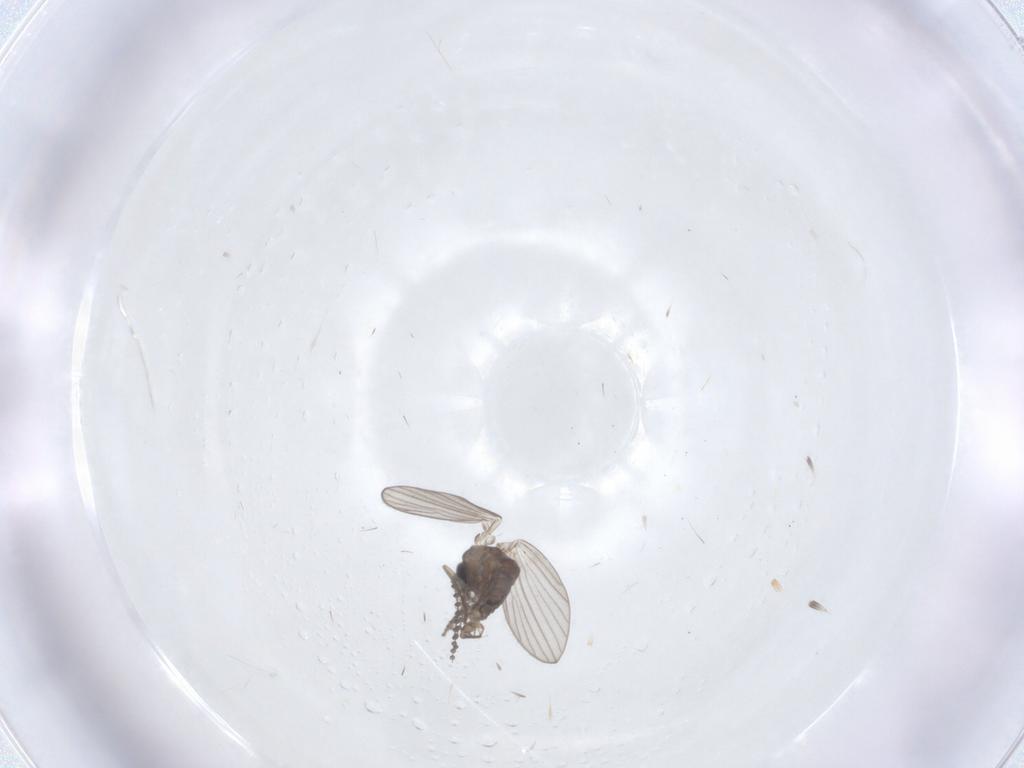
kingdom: Animalia
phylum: Arthropoda
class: Insecta
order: Diptera
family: Psychodidae
